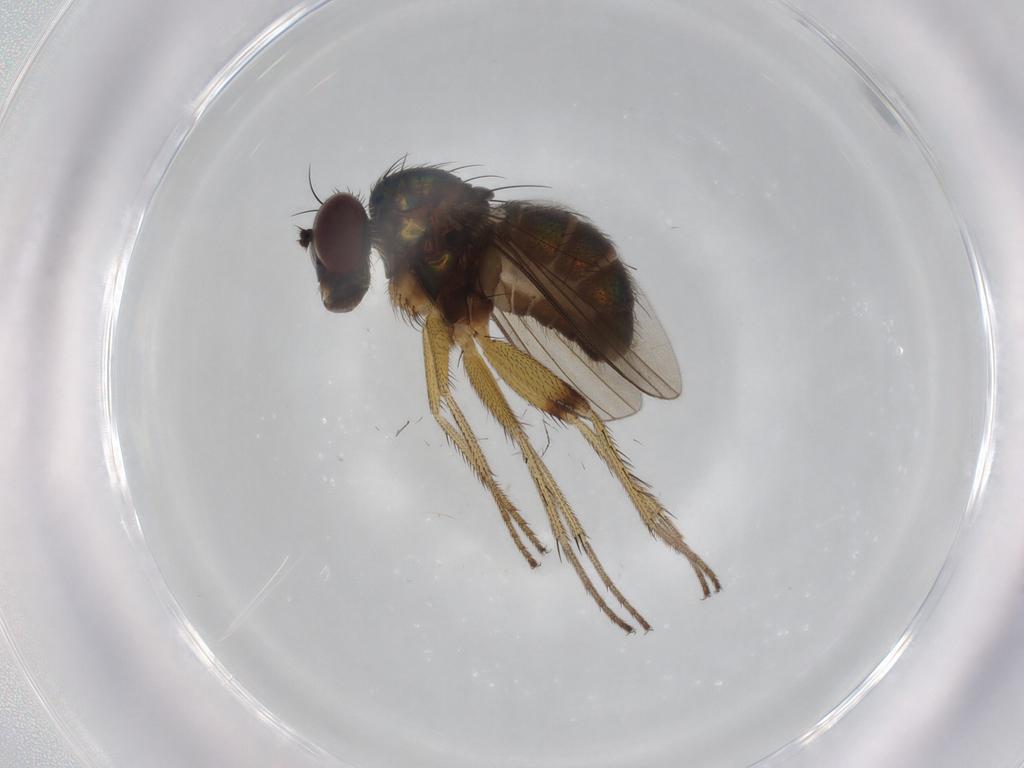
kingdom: Animalia
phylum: Arthropoda
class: Insecta
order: Diptera
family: Dolichopodidae
